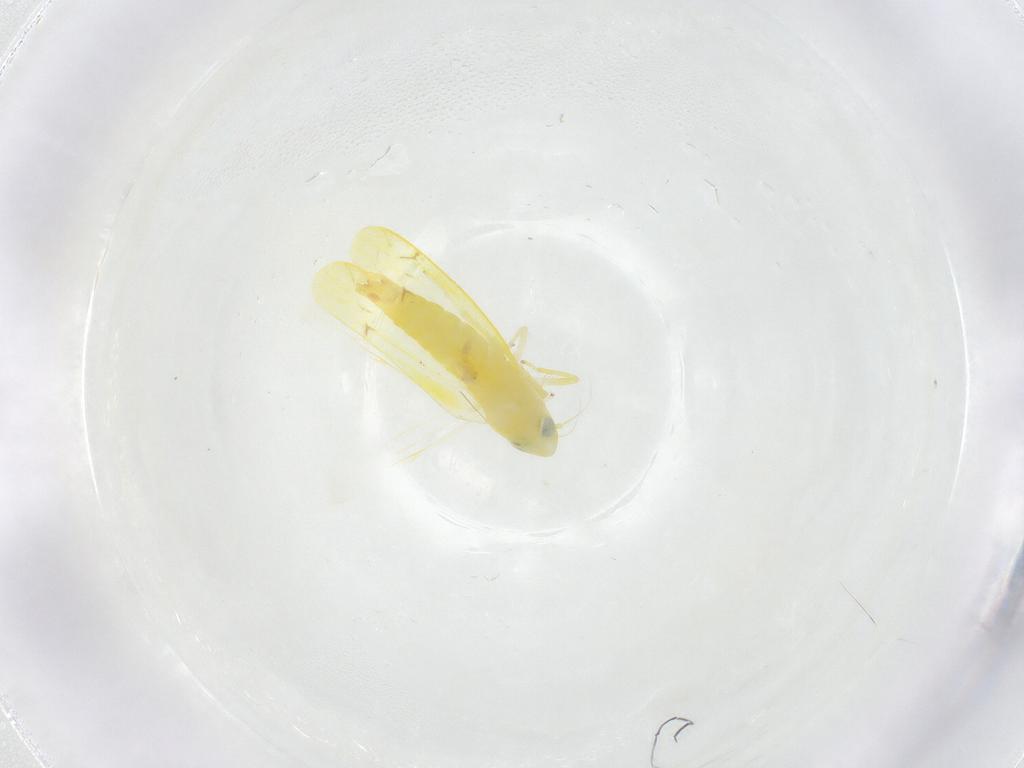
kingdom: Animalia
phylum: Arthropoda
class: Insecta
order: Hemiptera
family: Cicadellidae
